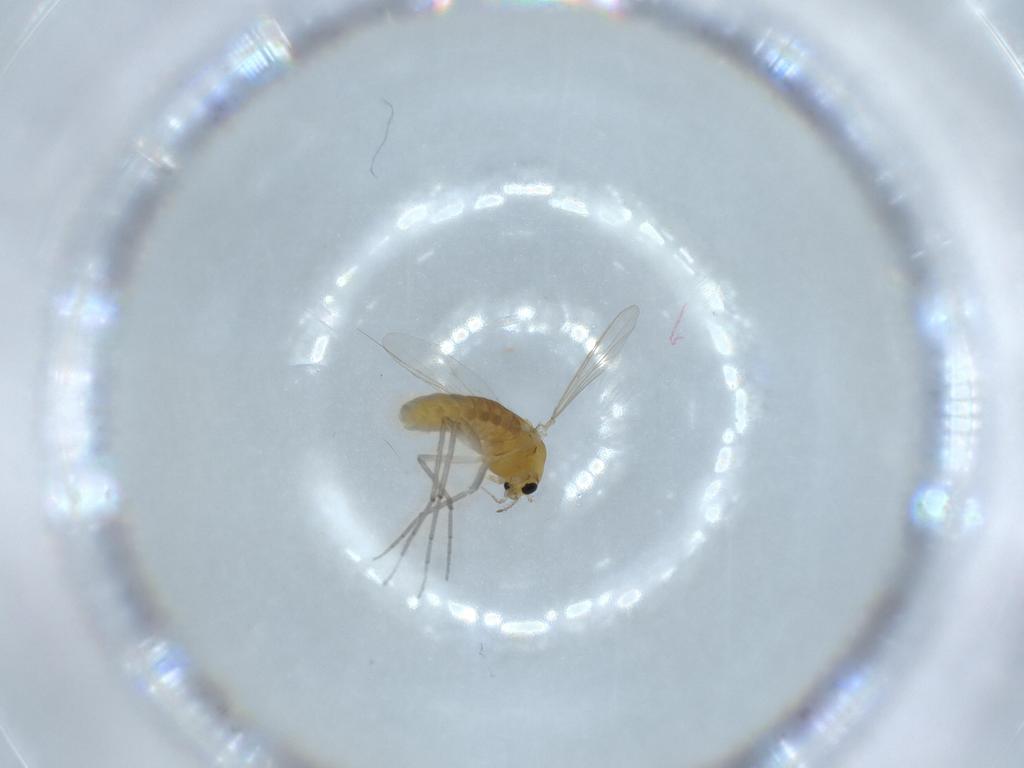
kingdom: Animalia
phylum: Arthropoda
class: Insecta
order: Diptera
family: Chironomidae
